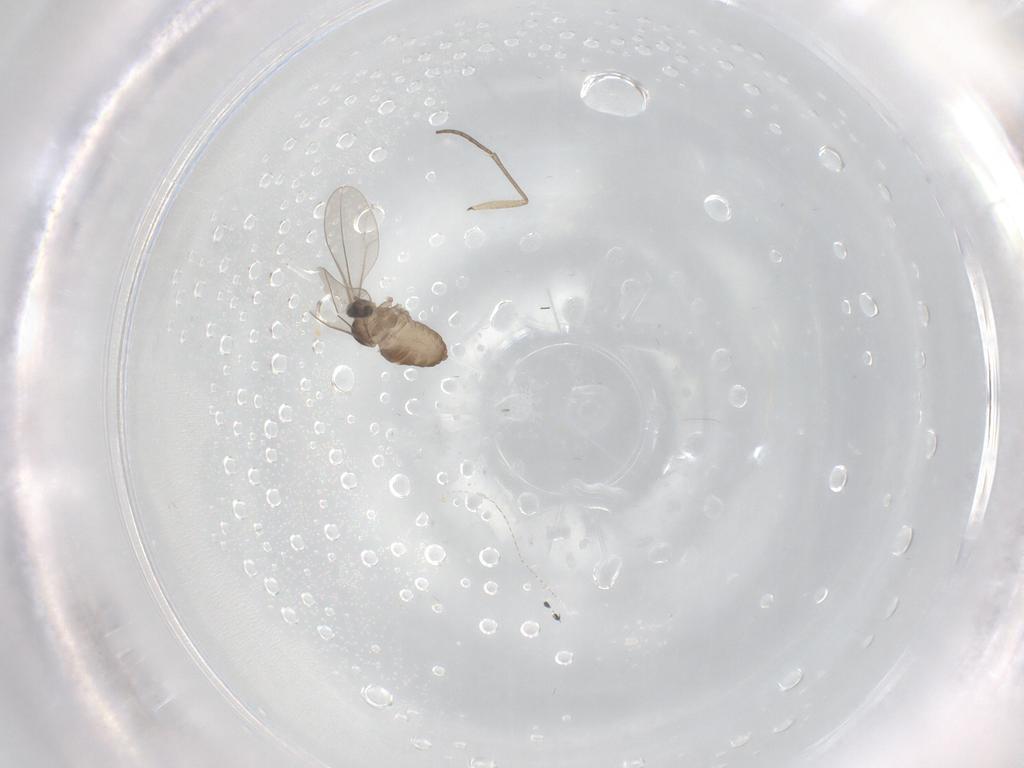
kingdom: Animalia
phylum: Arthropoda
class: Insecta
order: Diptera
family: Cecidomyiidae
